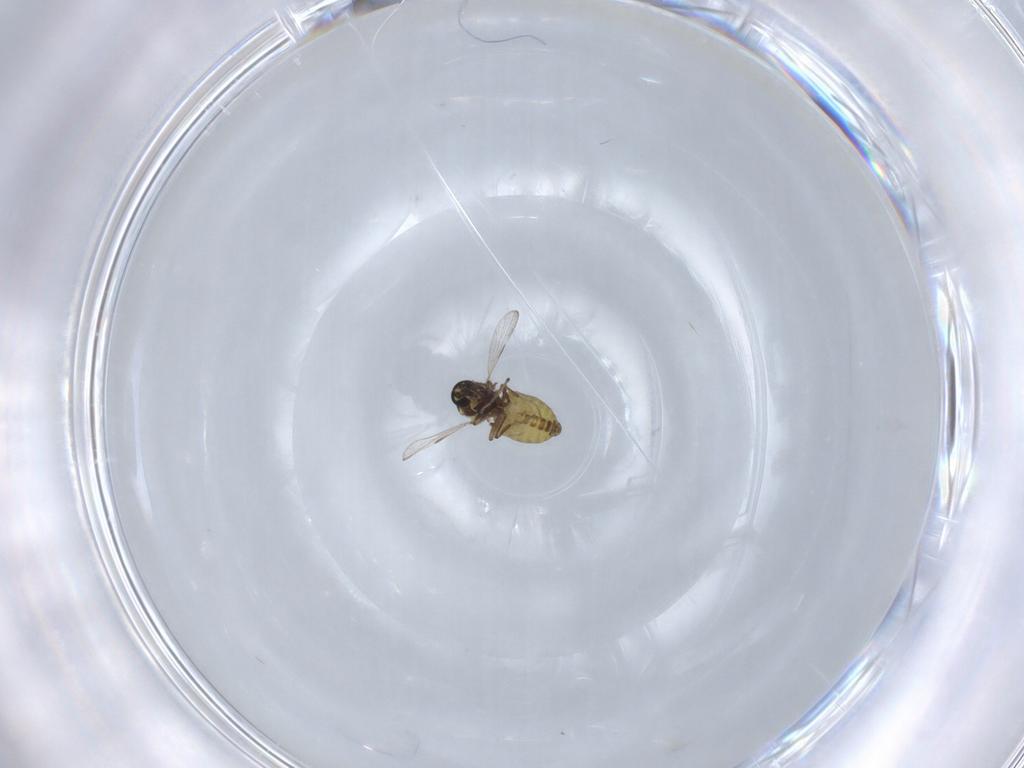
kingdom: Animalia
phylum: Arthropoda
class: Insecta
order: Diptera
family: Ceratopogonidae
